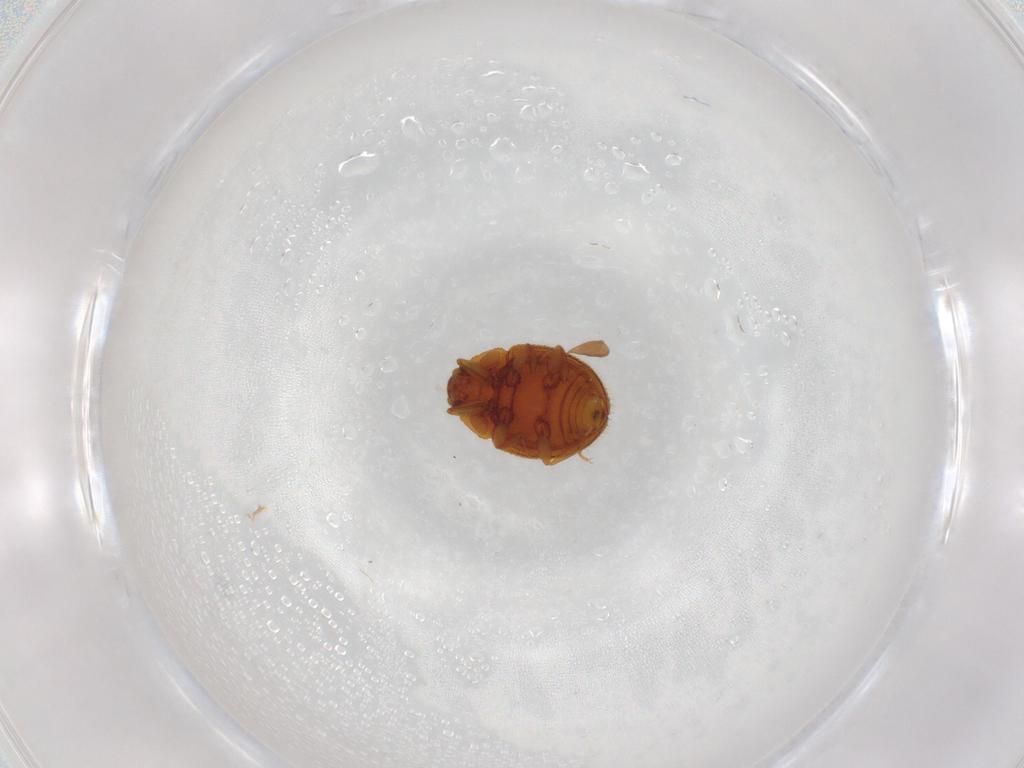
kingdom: Animalia
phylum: Arthropoda
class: Insecta
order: Coleoptera
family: Euxestidae
